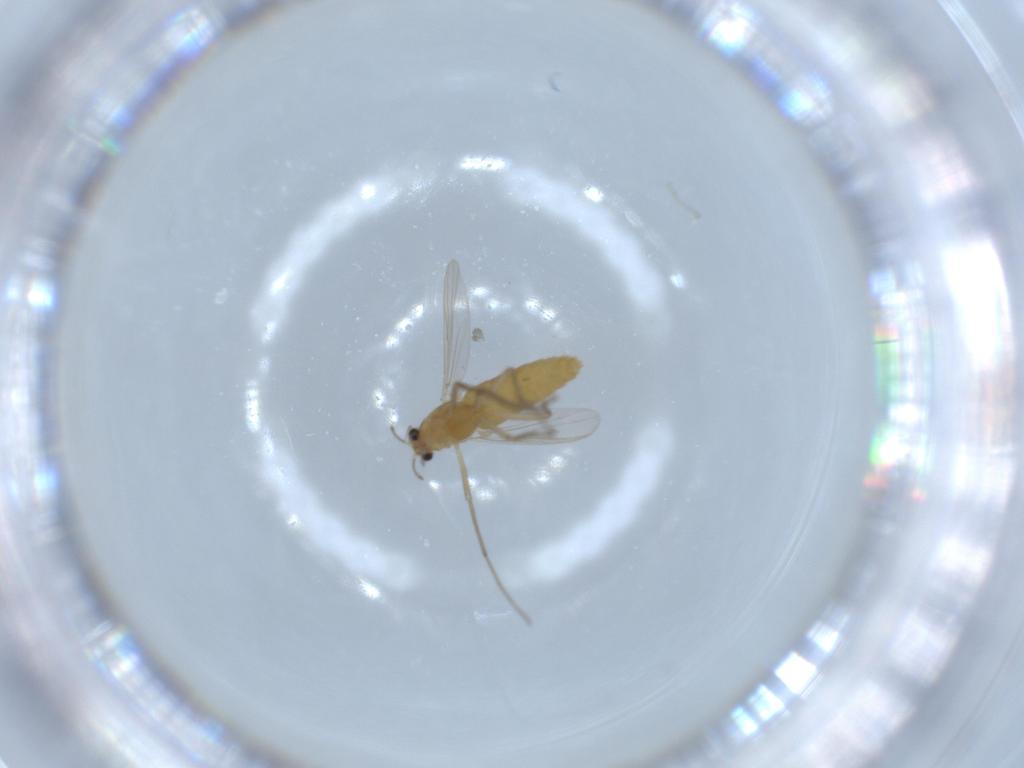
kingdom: Animalia
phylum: Arthropoda
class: Insecta
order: Diptera
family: Chironomidae
